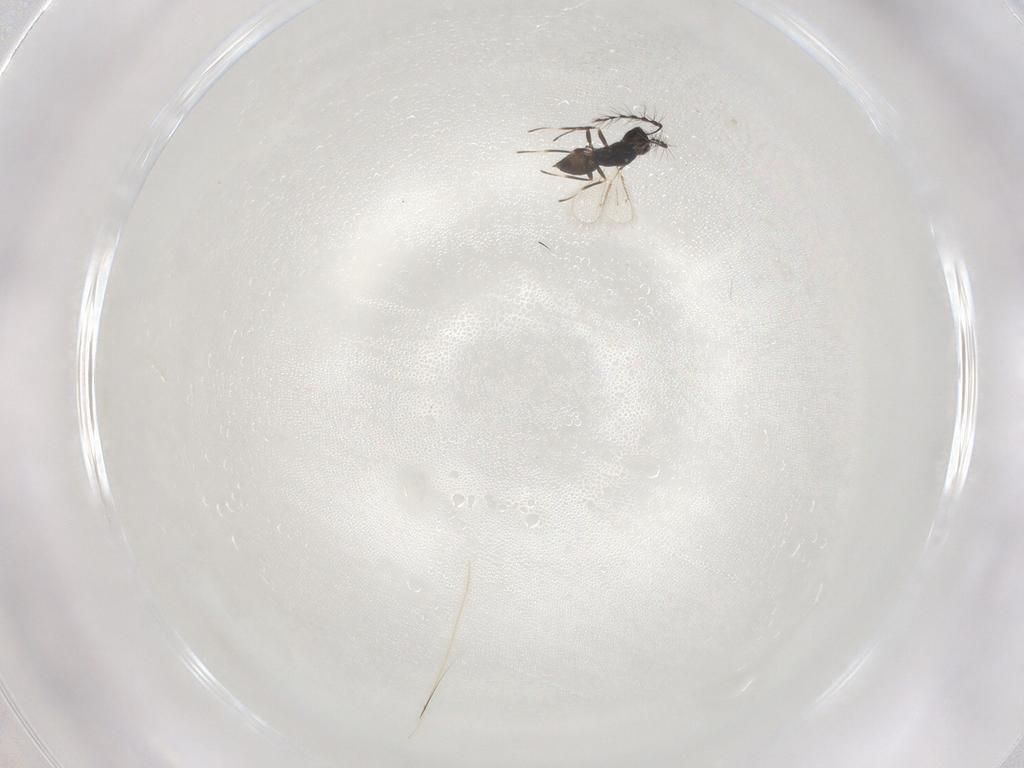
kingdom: Animalia
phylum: Arthropoda
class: Insecta
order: Hymenoptera
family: Eulophidae
